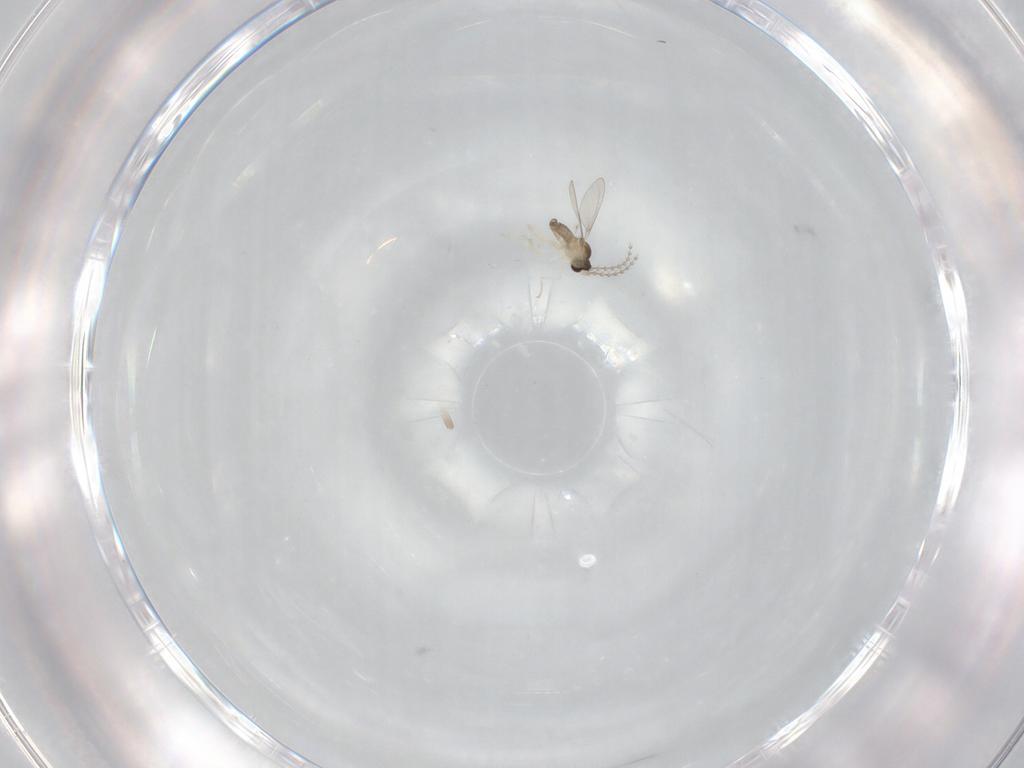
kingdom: Animalia
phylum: Arthropoda
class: Insecta
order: Diptera
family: Cecidomyiidae
